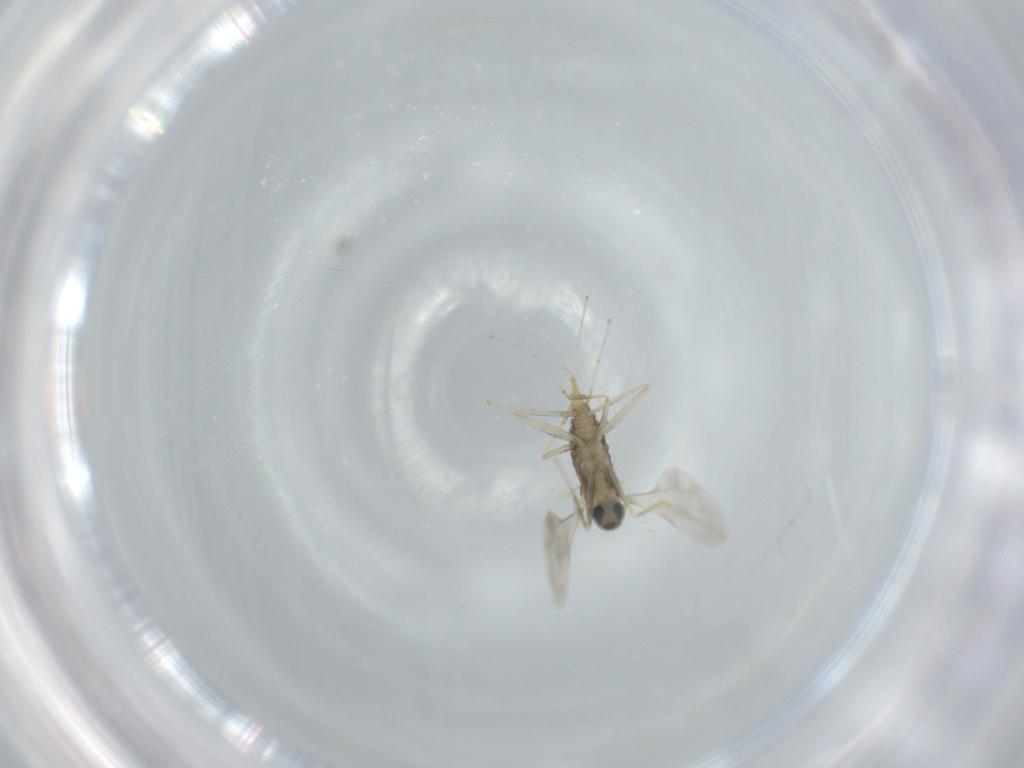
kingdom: Animalia
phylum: Arthropoda
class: Insecta
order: Diptera
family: Cecidomyiidae
